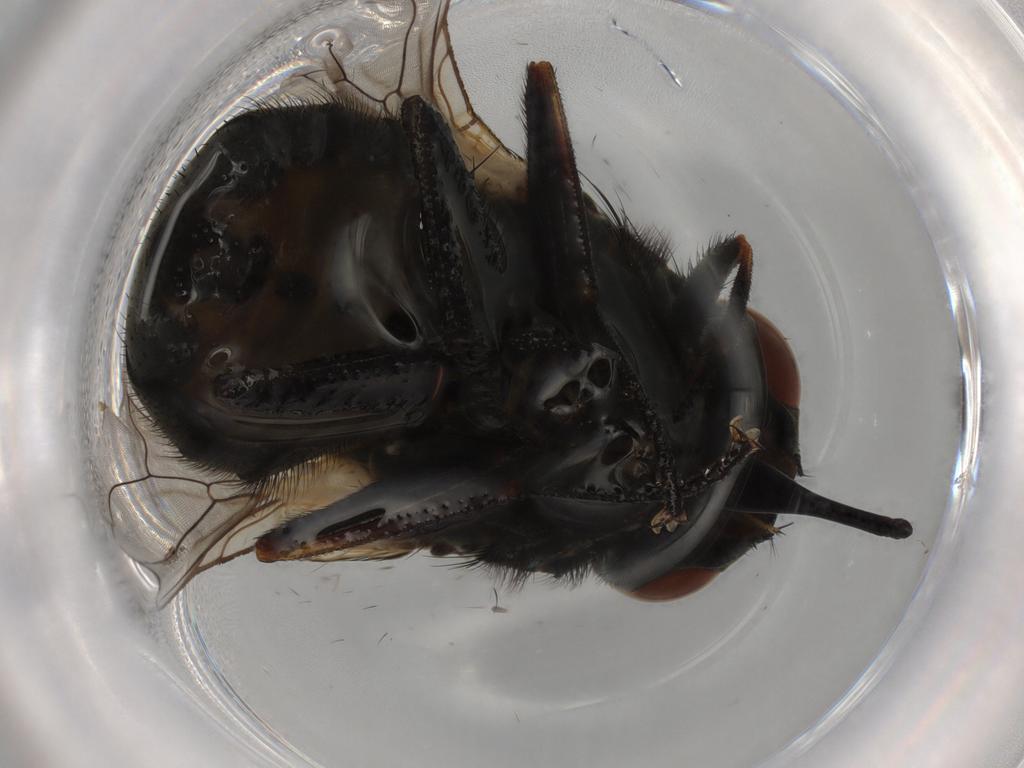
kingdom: Animalia
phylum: Arthropoda
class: Insecta
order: Diptera
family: Muscidae
